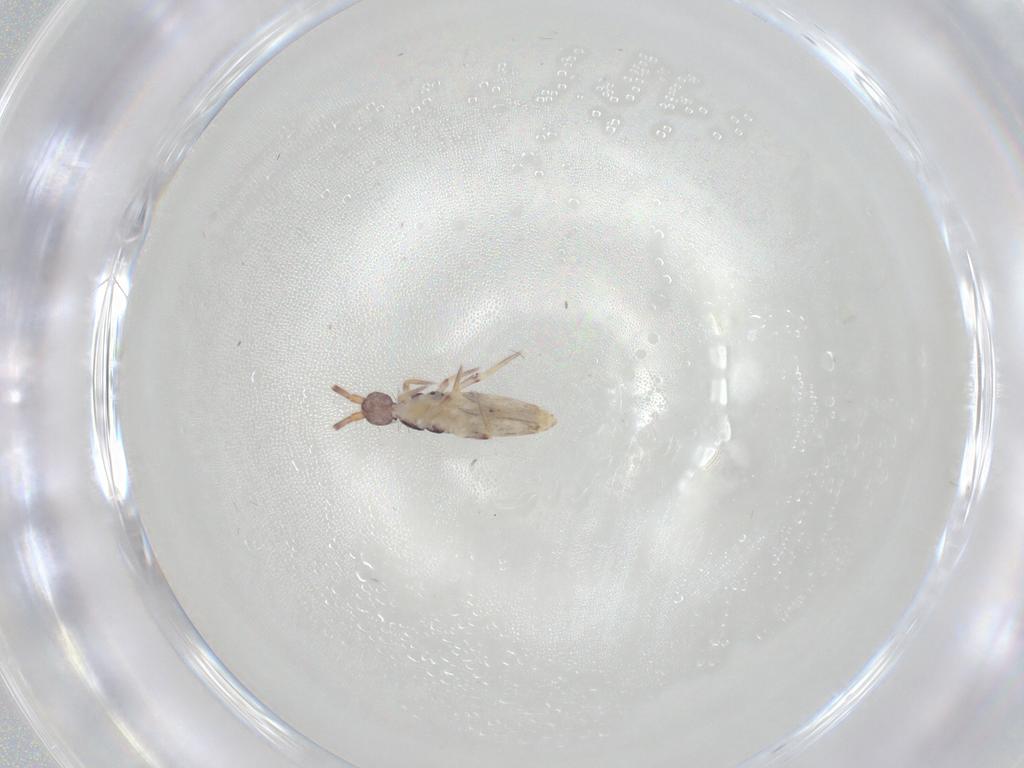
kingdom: Animalia
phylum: Arthropoda
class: Collembola
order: Entomobryomorpha
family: Entomobryidae
